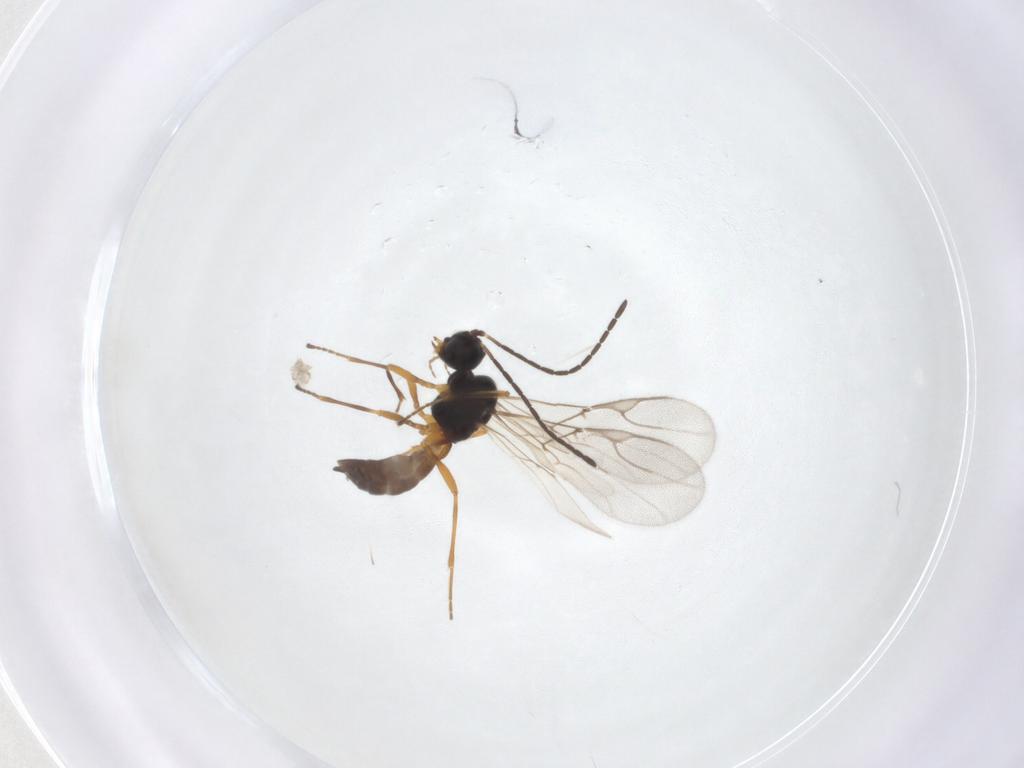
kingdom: Animalia
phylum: Arthropoda
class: Insecta
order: Hymenoptera
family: Braconidae
